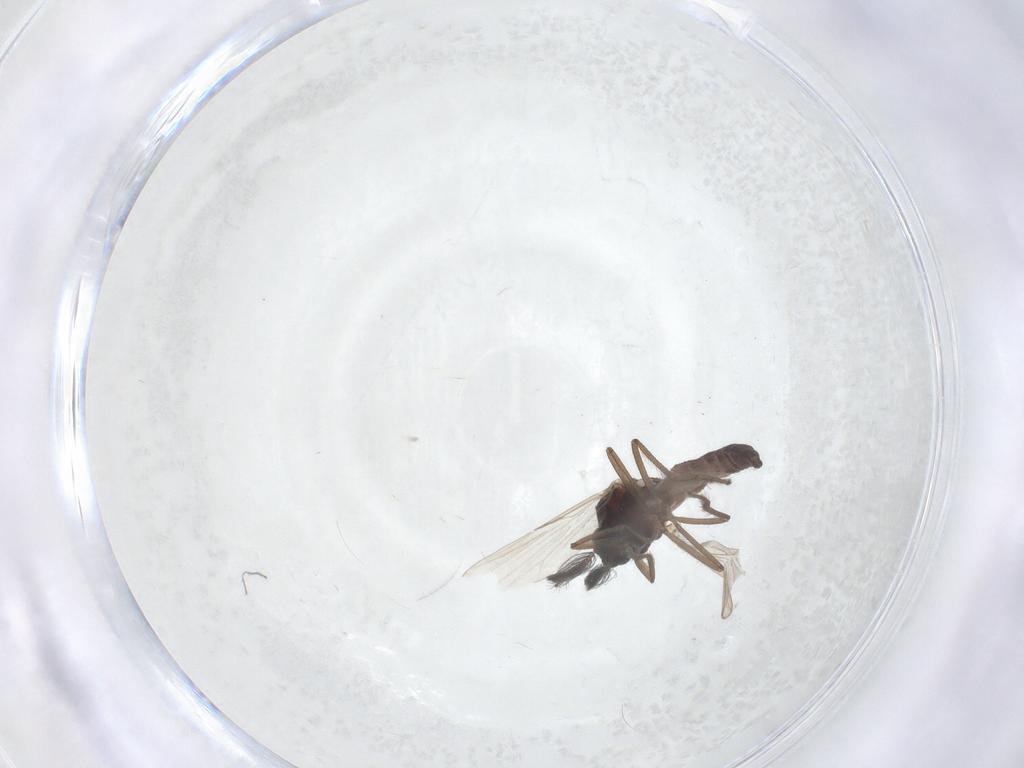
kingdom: Animalia
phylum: Arthropoda
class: Insecta
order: Diptera
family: Ceratopogonidae
